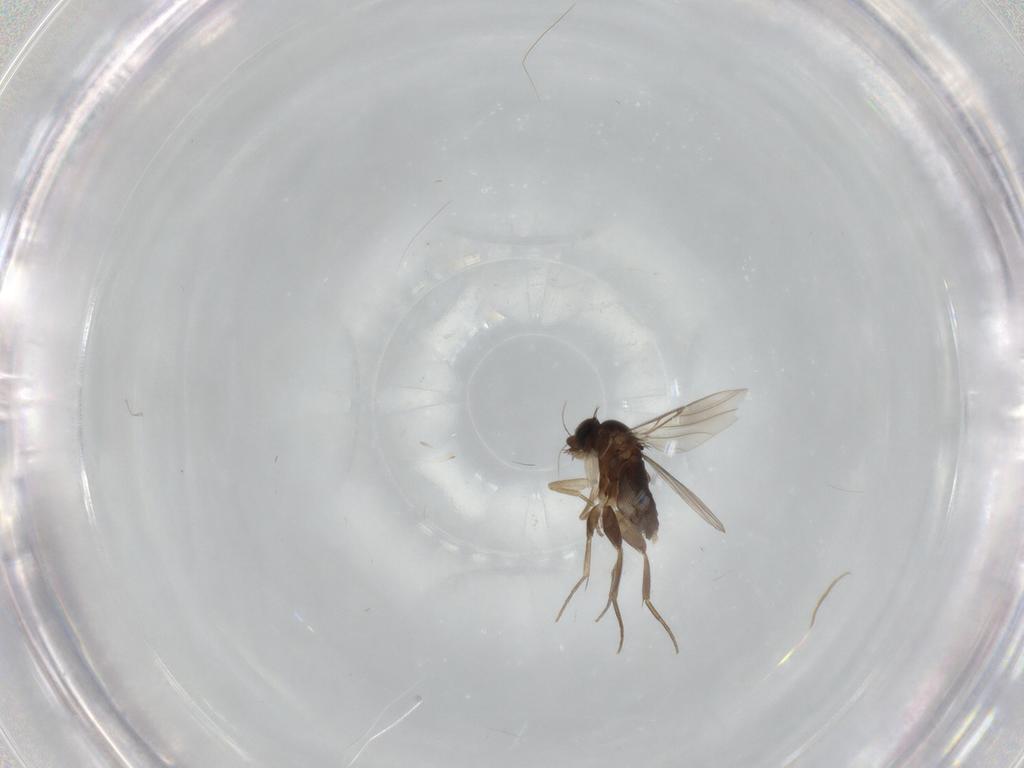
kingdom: Animalia
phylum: Arthropoda
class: Insecta
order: Diptera
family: Phoridae
